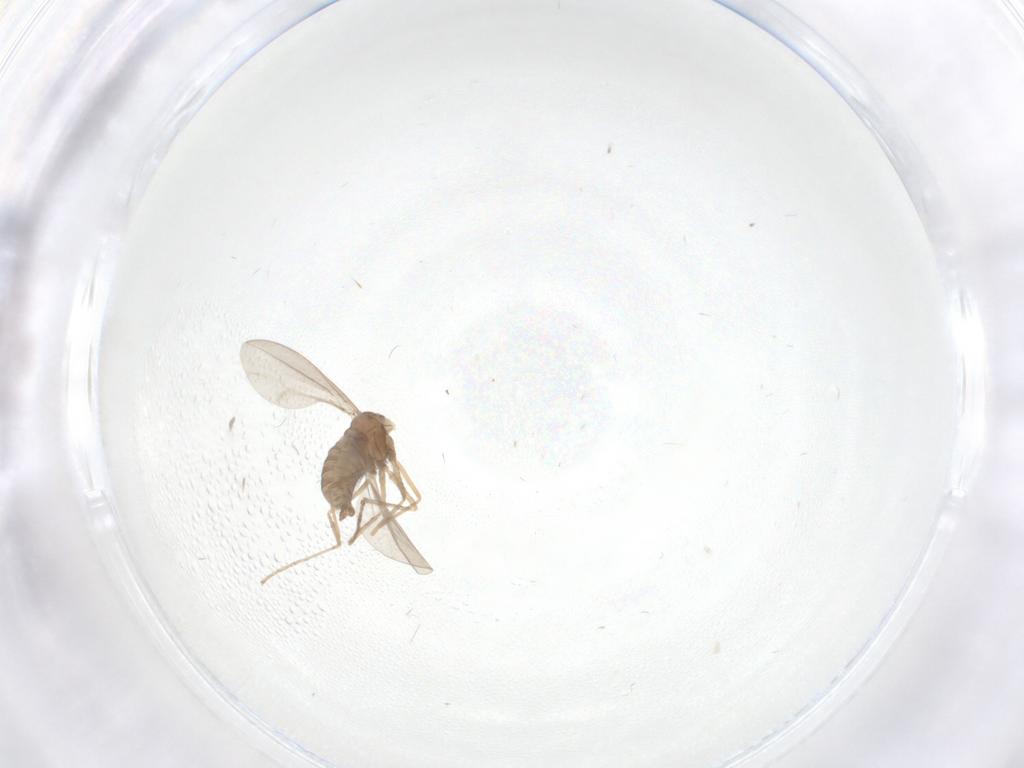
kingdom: Animalia
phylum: Arthropoda
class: Insecta
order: Diptera
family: Cecidomyiidae
